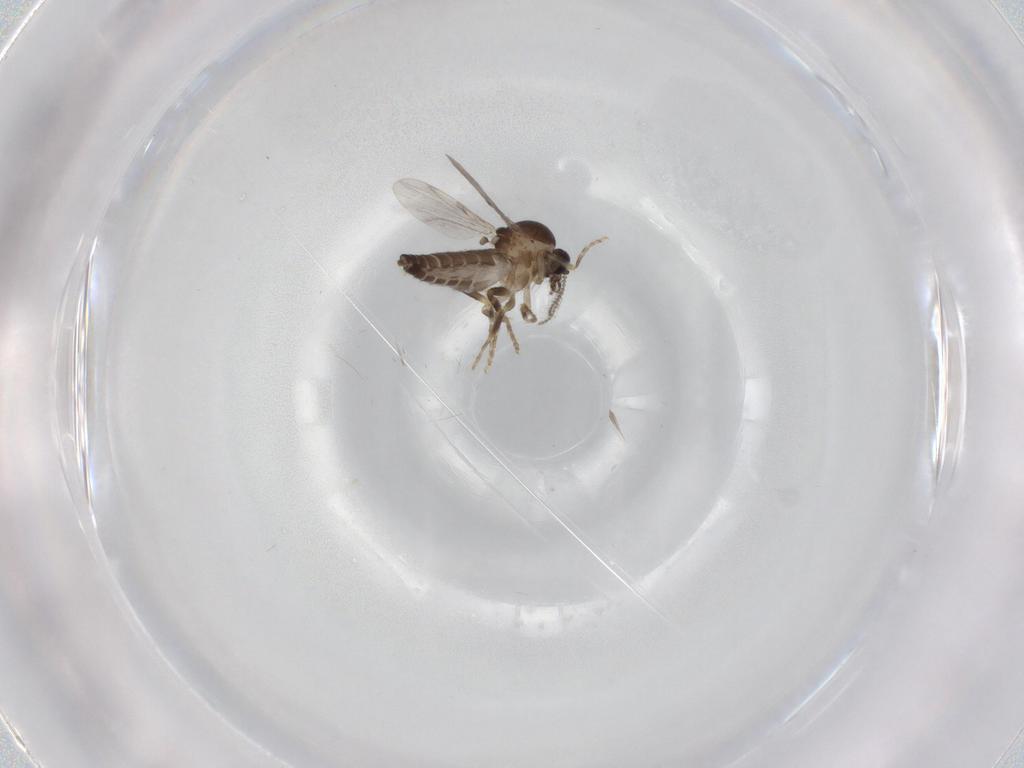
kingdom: Animalia
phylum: Arthropoda
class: Insecta
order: Diptera
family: Ceratopogonidae
